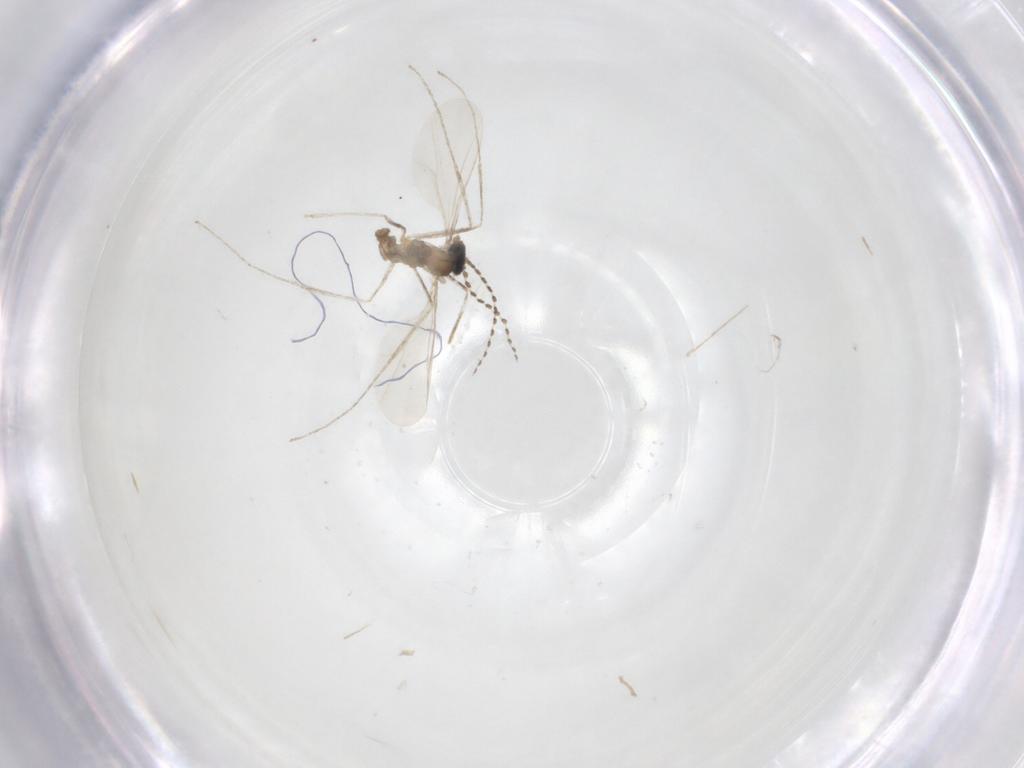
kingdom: Animalia
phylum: Arthropoda
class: Insecta
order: Diptera
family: Cecidomyiidae
